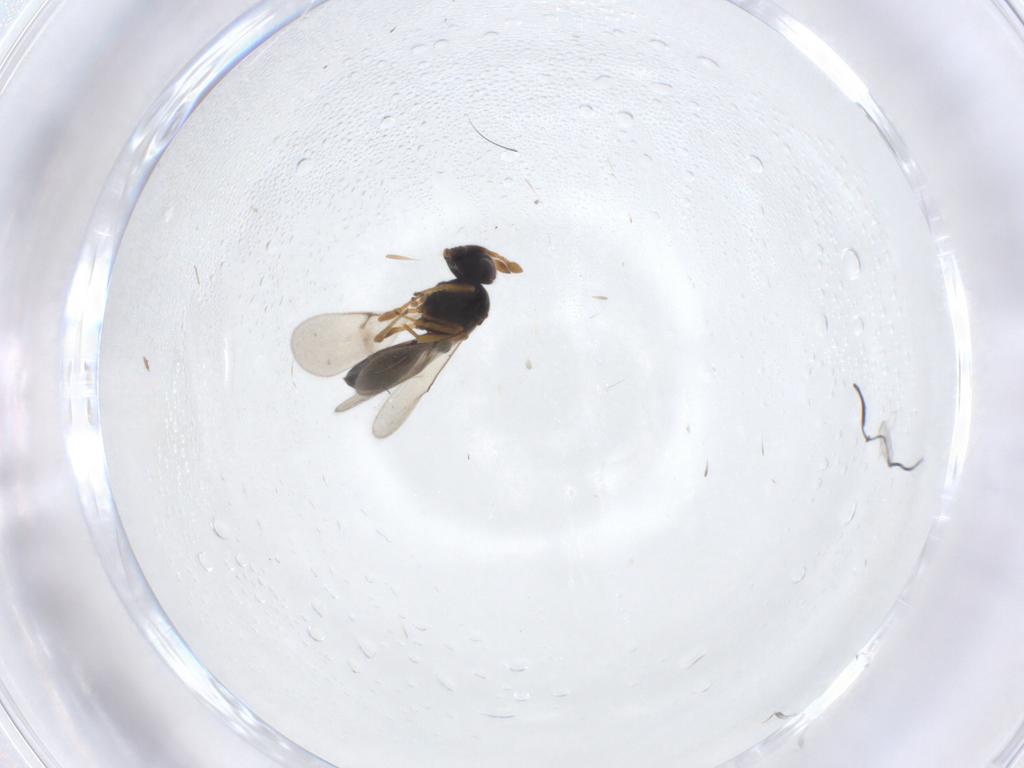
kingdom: Animalia
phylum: Arthropoda
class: Insecta
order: Hymenoptera
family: Scelionidae
